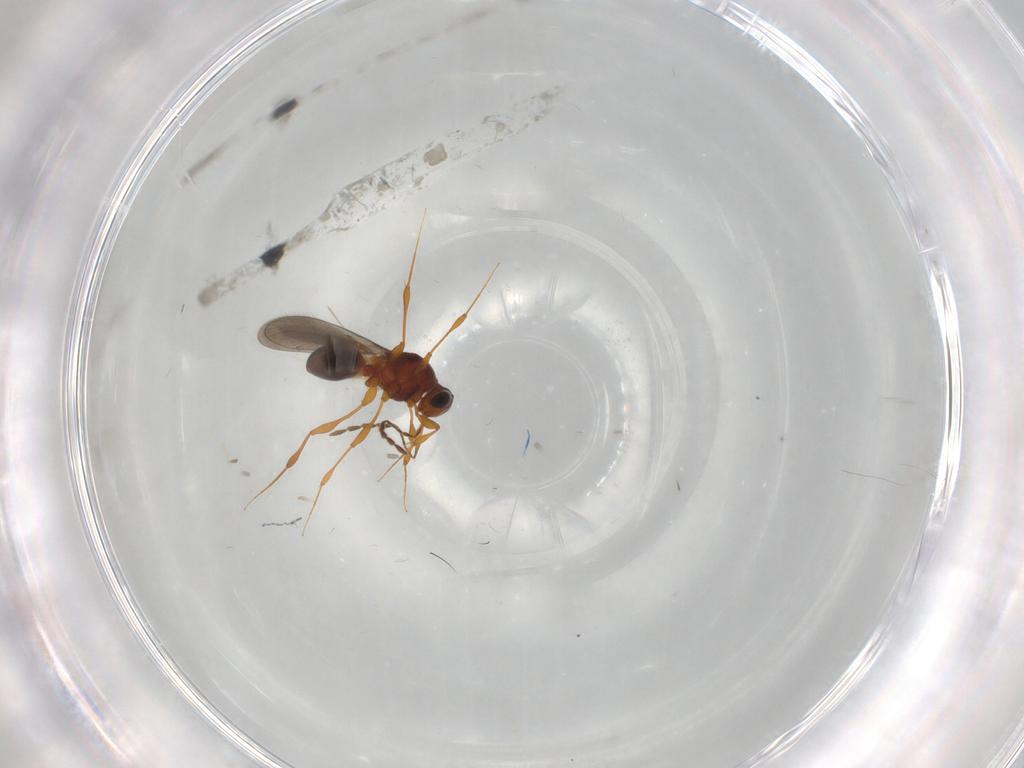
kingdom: Animalia
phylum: Arthropoda
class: Insecta
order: Hymenoptera
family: Platygastridae
